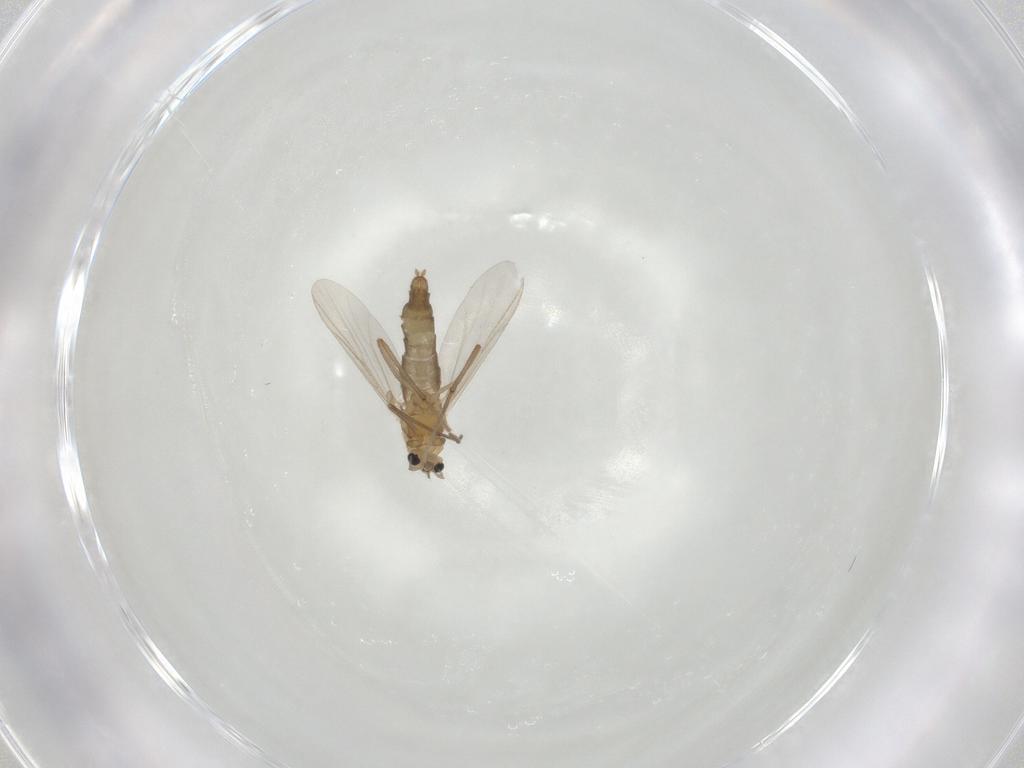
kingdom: Animalia
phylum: Arthropoda
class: Insecta
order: Diptera
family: Chironomidae
